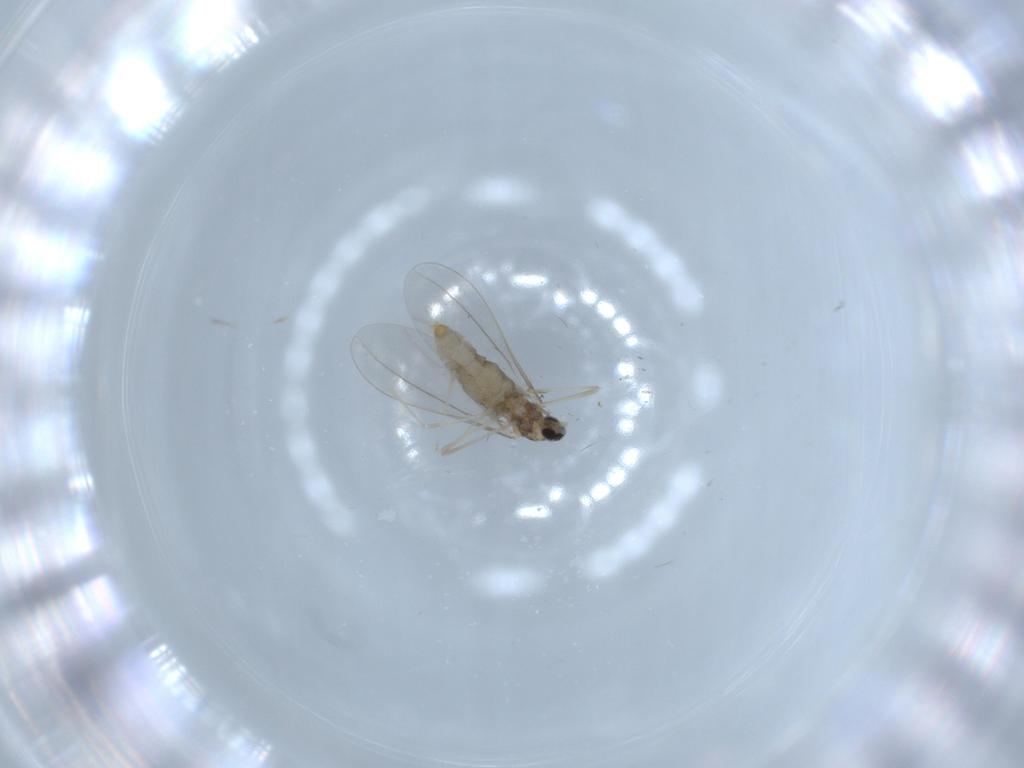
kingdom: Animalia
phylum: Arthropoda
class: Insecta
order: Diptera
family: Cecidomyiidae
